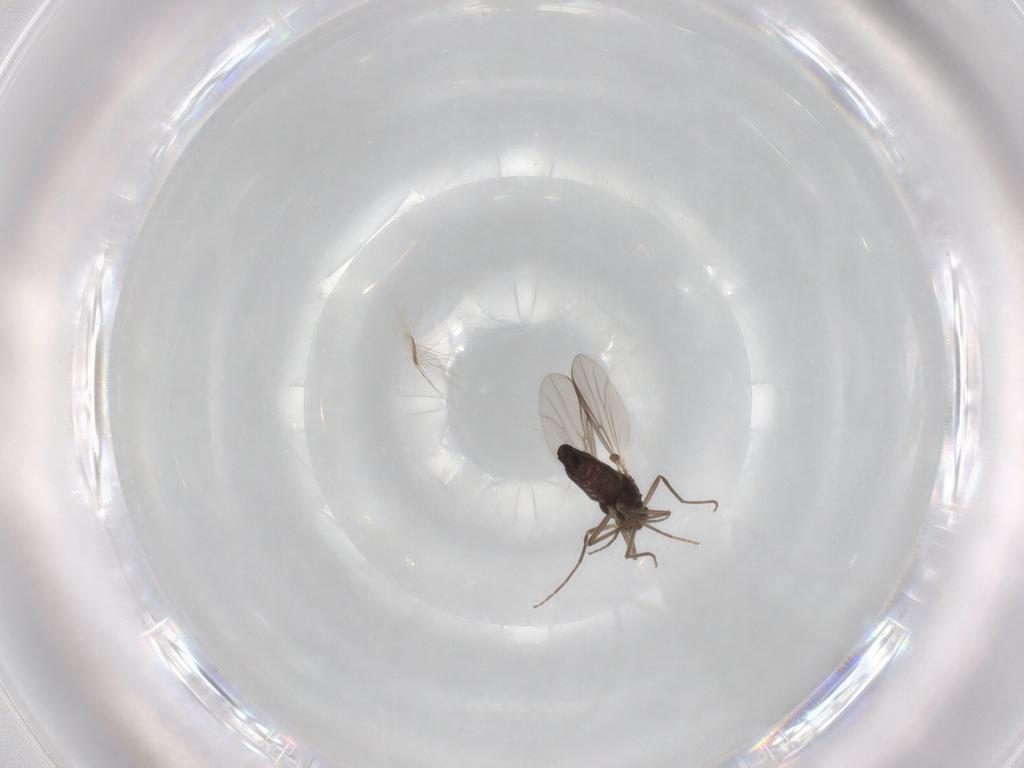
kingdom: Animalia
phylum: Arthropoda
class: Insecta
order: Diptera
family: Chironomidae
